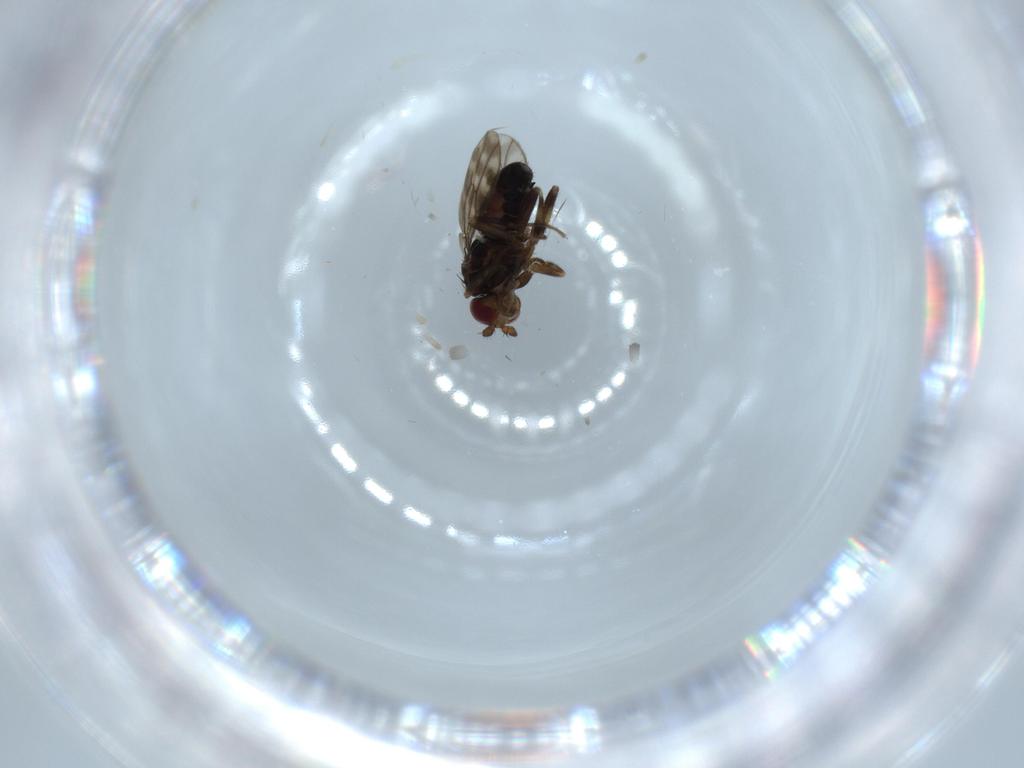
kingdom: Animalia
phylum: Arthropoda
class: Insecta
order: Diptera
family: Sphaeroceridae
